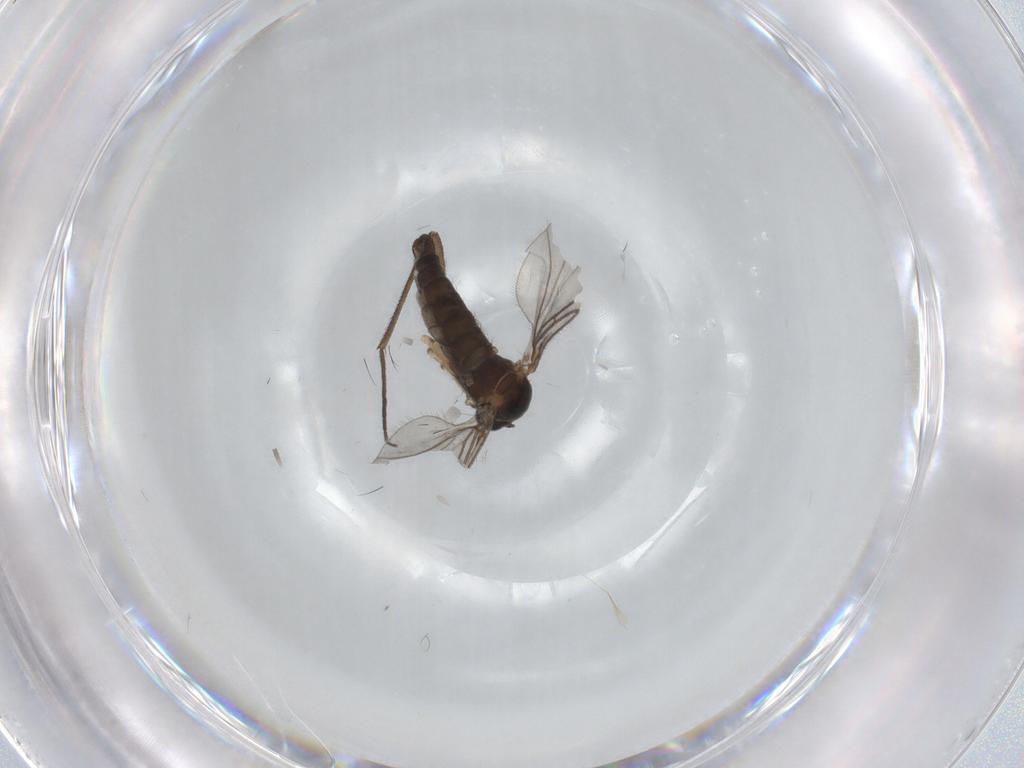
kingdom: Animalia
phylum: Arthropoda
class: Insecta
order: Diptera
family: Sciaridae
